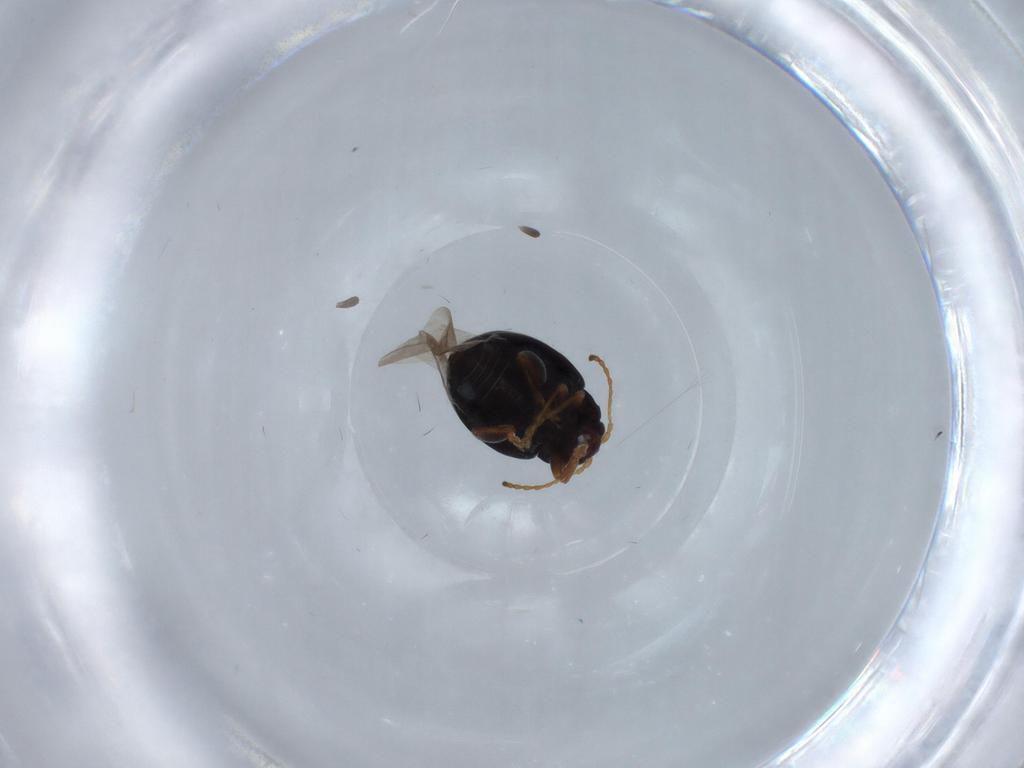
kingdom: Animalia
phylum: Arthropoda
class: Insecta
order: Coleoptera
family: Chrysomelidae
